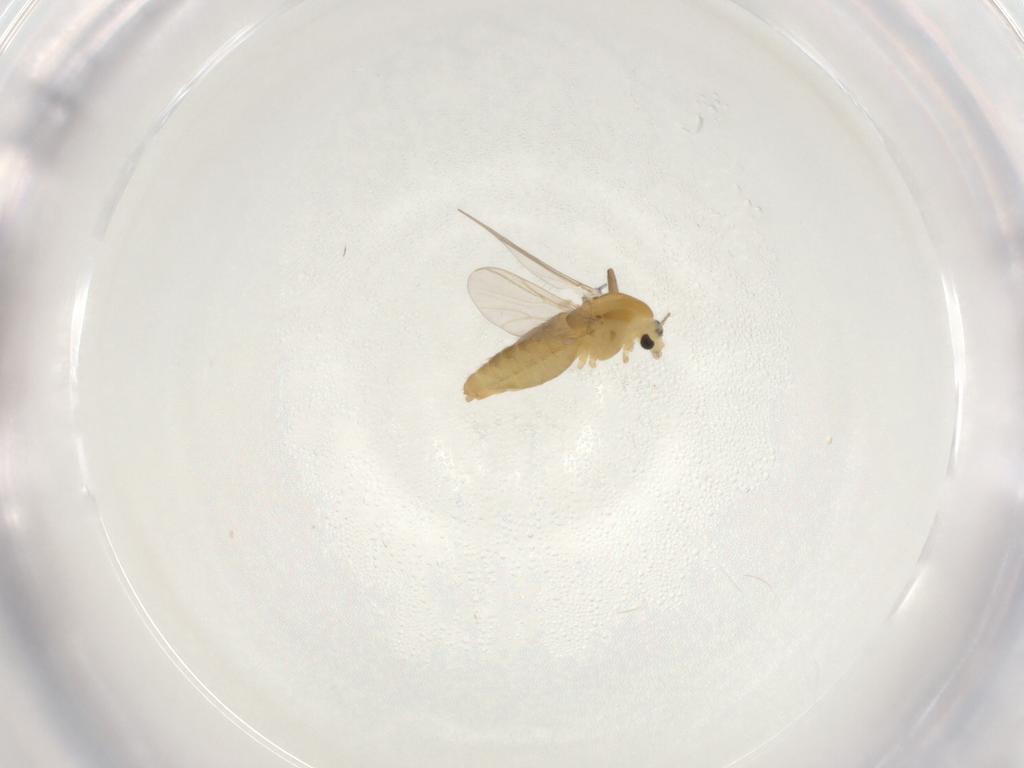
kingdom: Animalia
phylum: Arthropoda
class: Insecta
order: Diptera
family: Chironomidae
